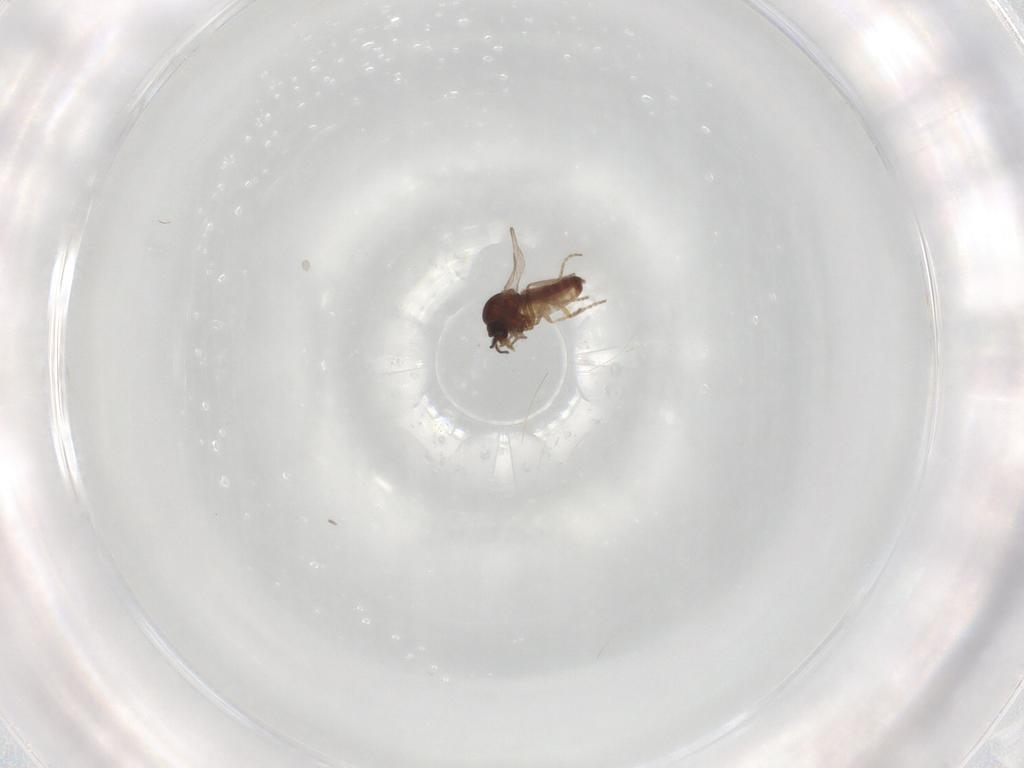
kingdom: Animalia
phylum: Arthropoda
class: Insecta
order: Diptera
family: Ceratopogonidae
